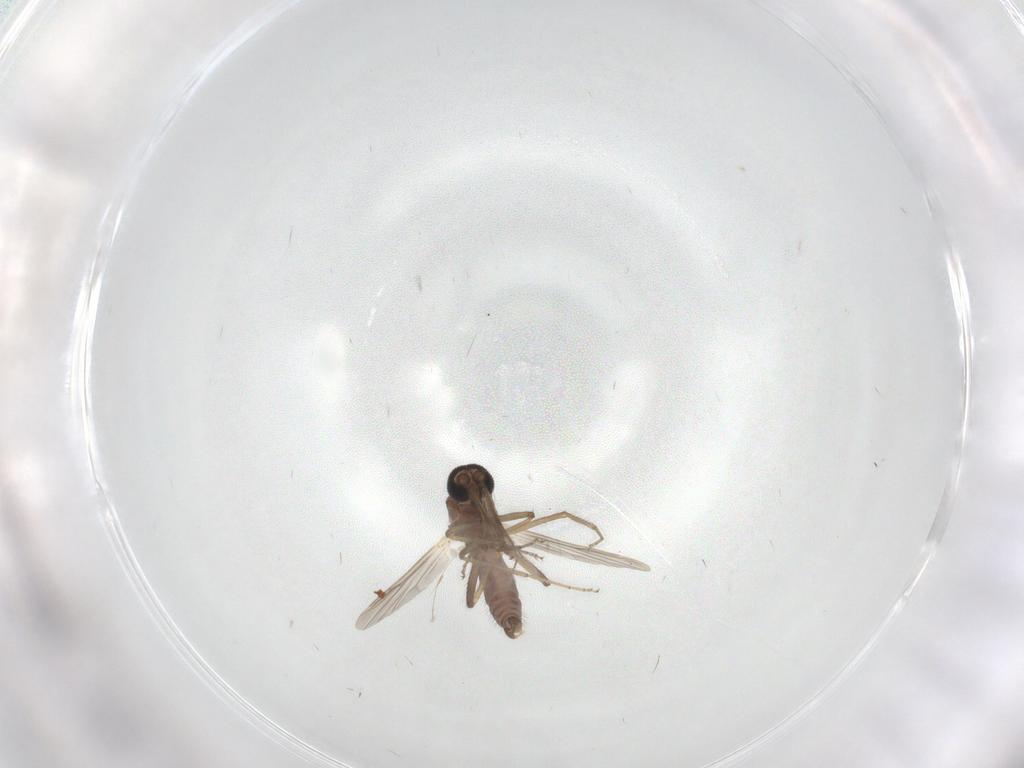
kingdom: Animalia
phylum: Arthropoda
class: Insecta
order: Diptera
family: Ceratopogonidae
